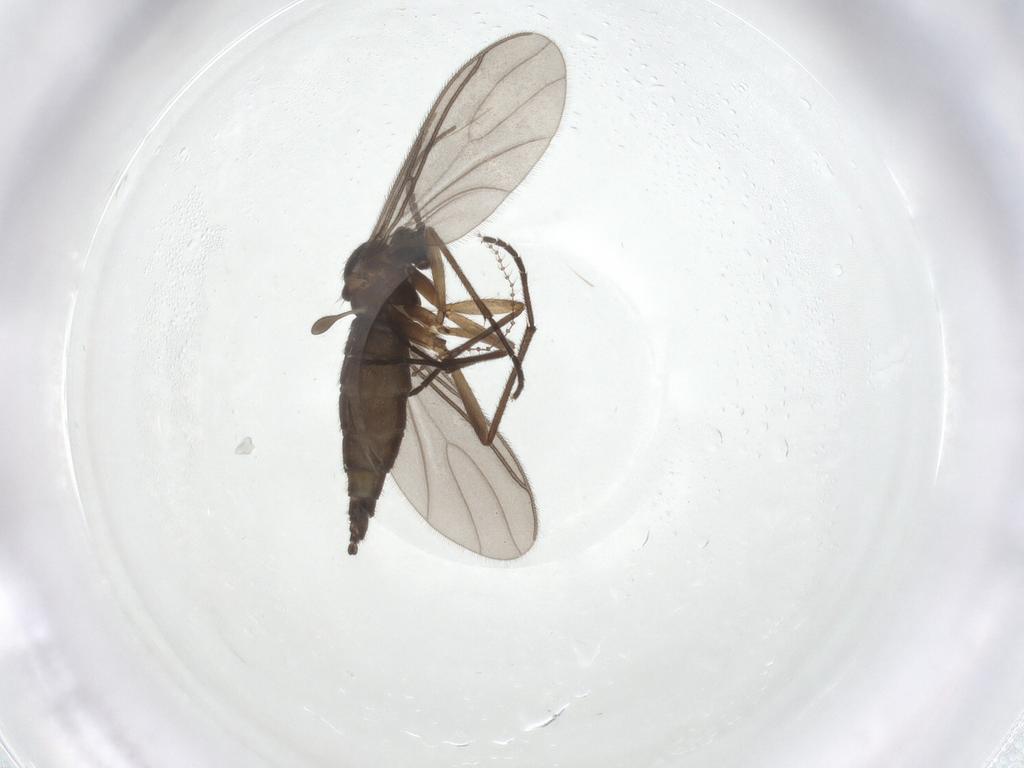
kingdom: Animalia
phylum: Arthropoda
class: Insecta
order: Diptera
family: Sciaridae
